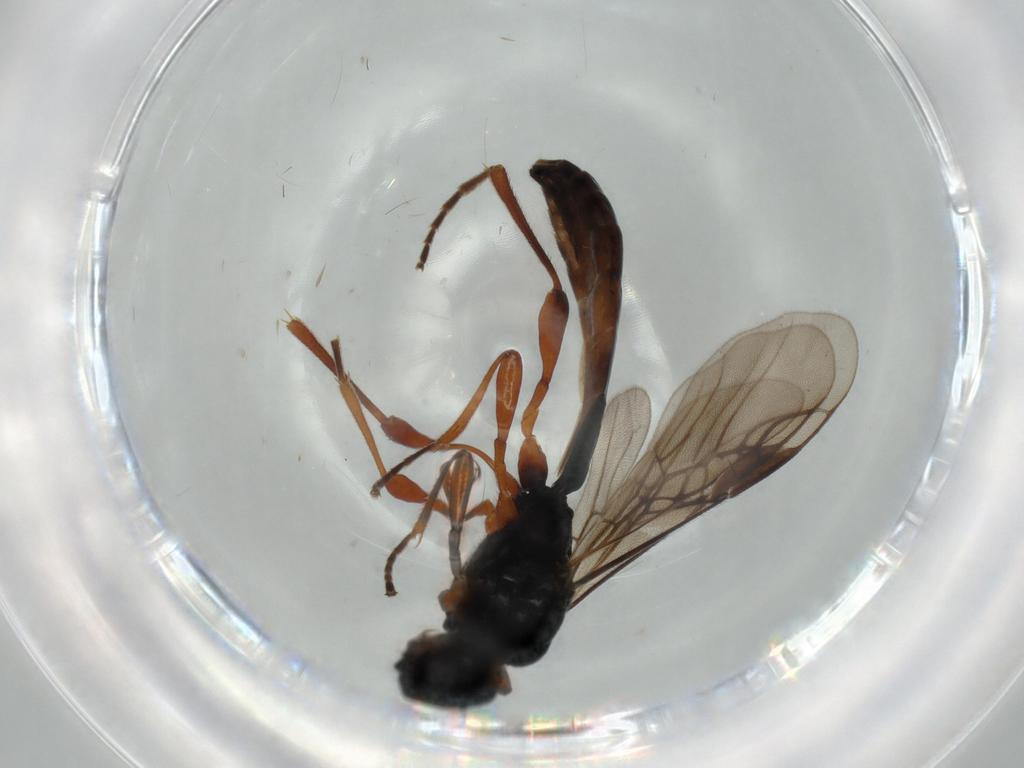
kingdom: Animalia
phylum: Arthropoda
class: Insecta
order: Hymenoptera
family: Braconidae
